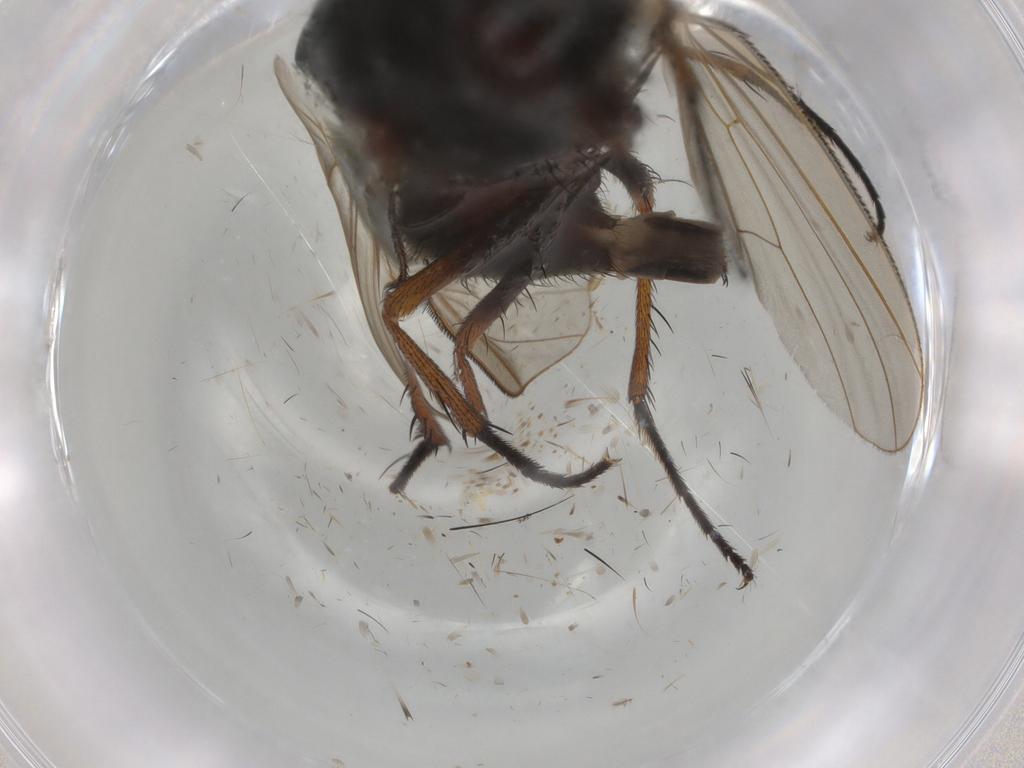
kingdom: Animalia
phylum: Arthropoda
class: Insecta
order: Diptera
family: Anthomyiidae
